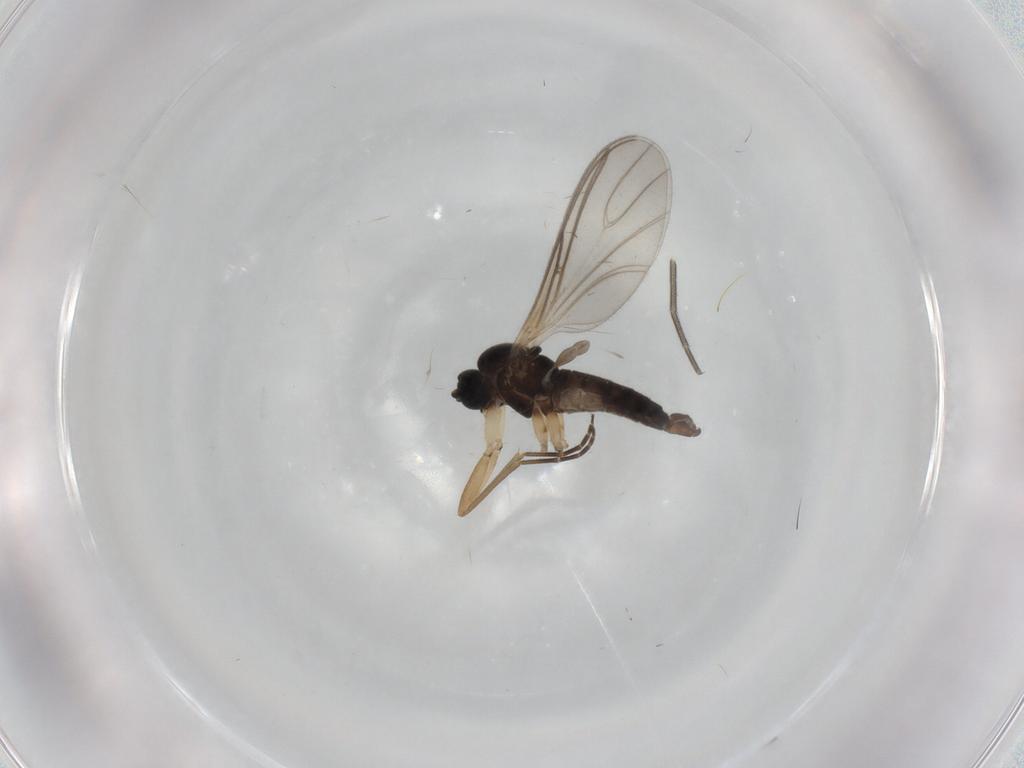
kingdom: Animalia
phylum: Arthropoda
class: Insecta
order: Diptera
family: Sciaridae
